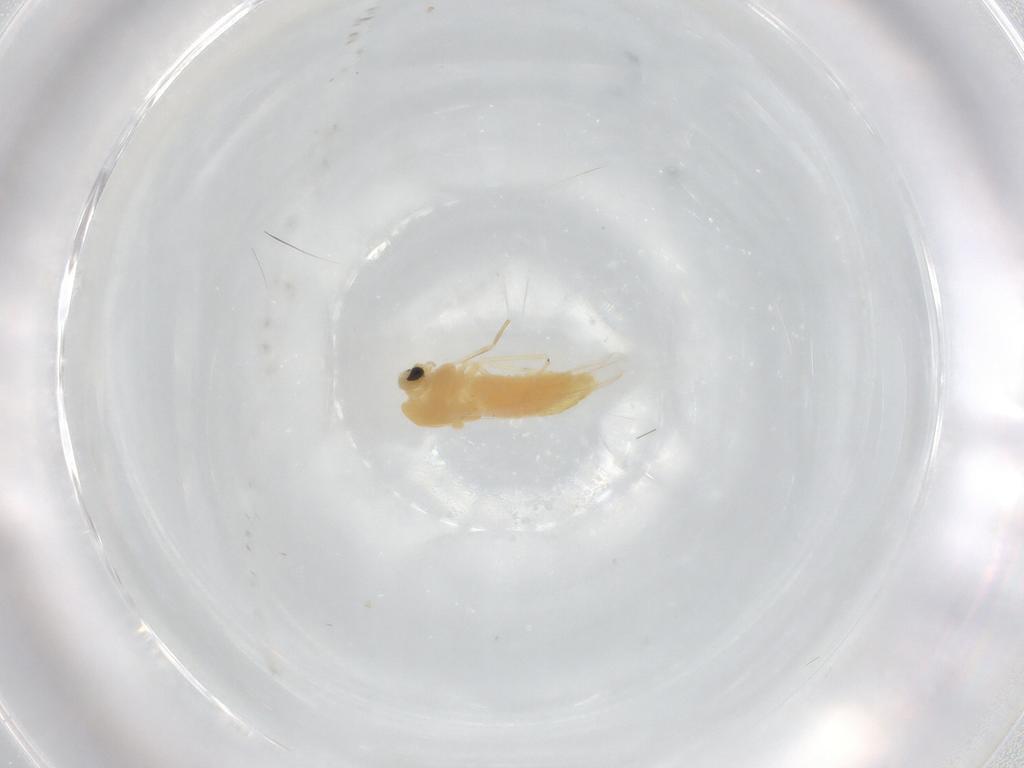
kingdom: Animalia
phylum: Arthropoda
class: Insecta
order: Diptera
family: Chironomidae
